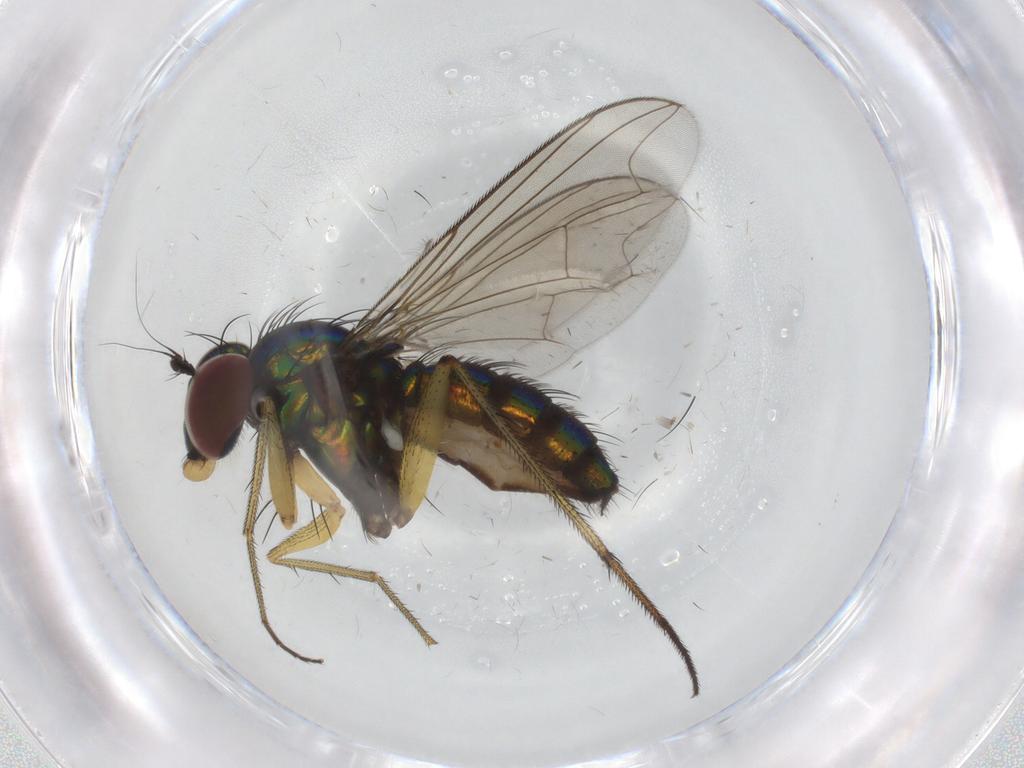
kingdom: Animalia
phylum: Arthropoda
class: Insecta
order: Diptera
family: Dolichopodidae
